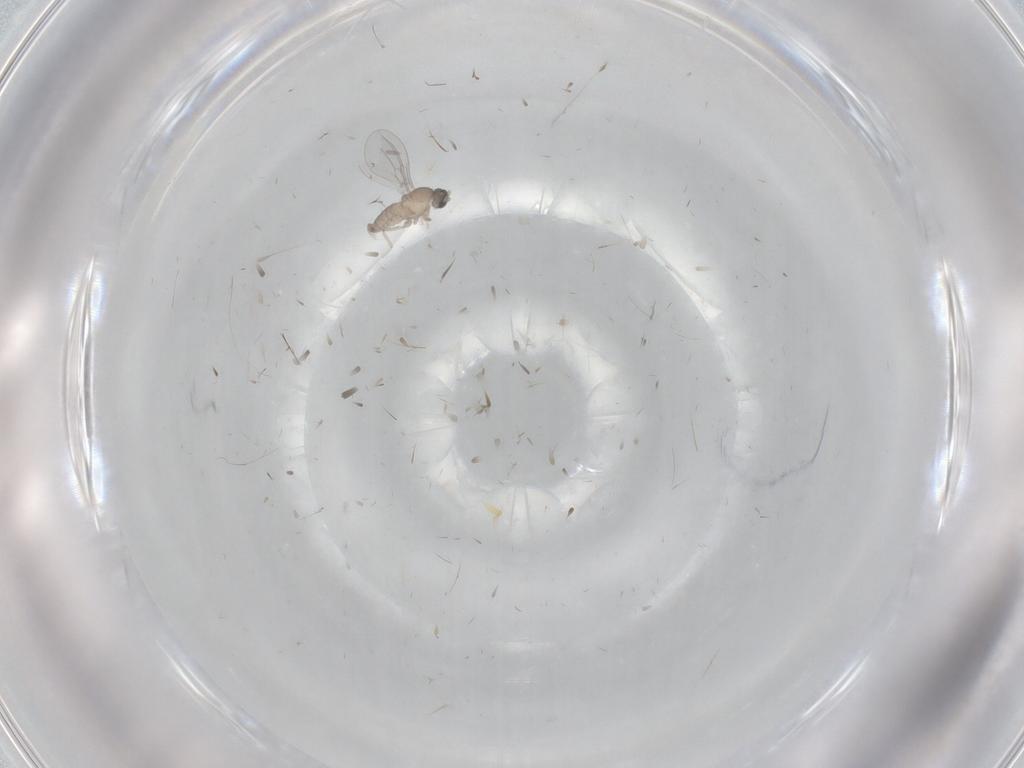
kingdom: Animalia
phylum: Arthropoda
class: Insecta
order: Diptera
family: Cecidomyiidae
